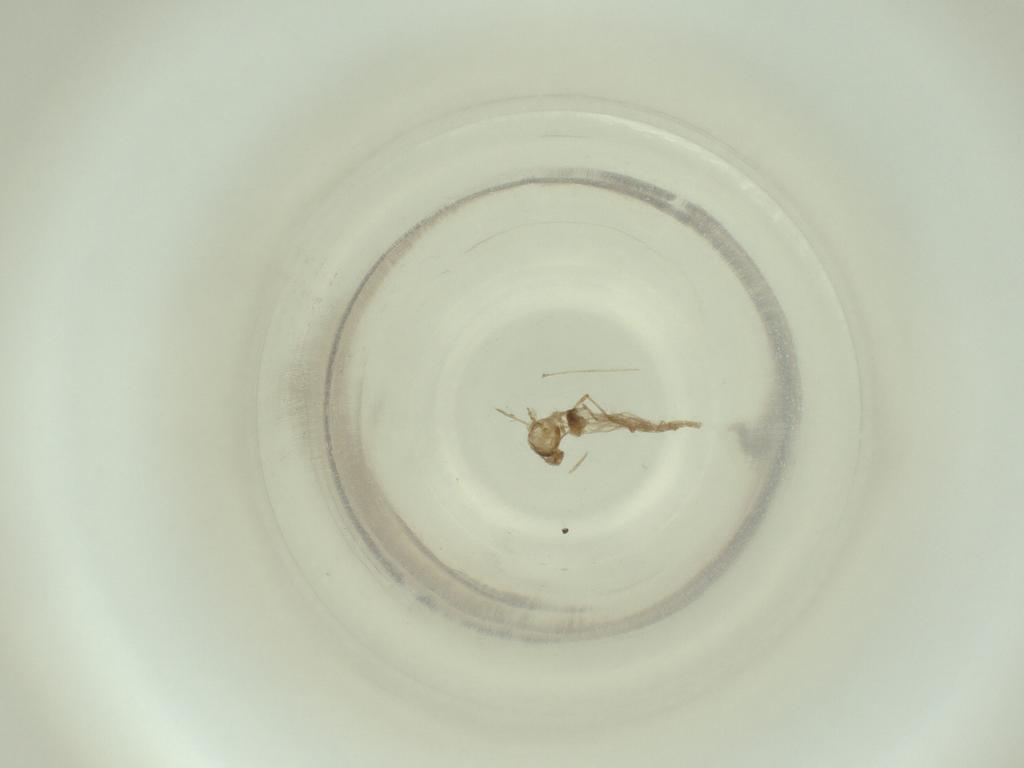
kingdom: Animalia
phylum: Arthropoda
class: Insecta
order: Diptera
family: Cecidomyiidae
